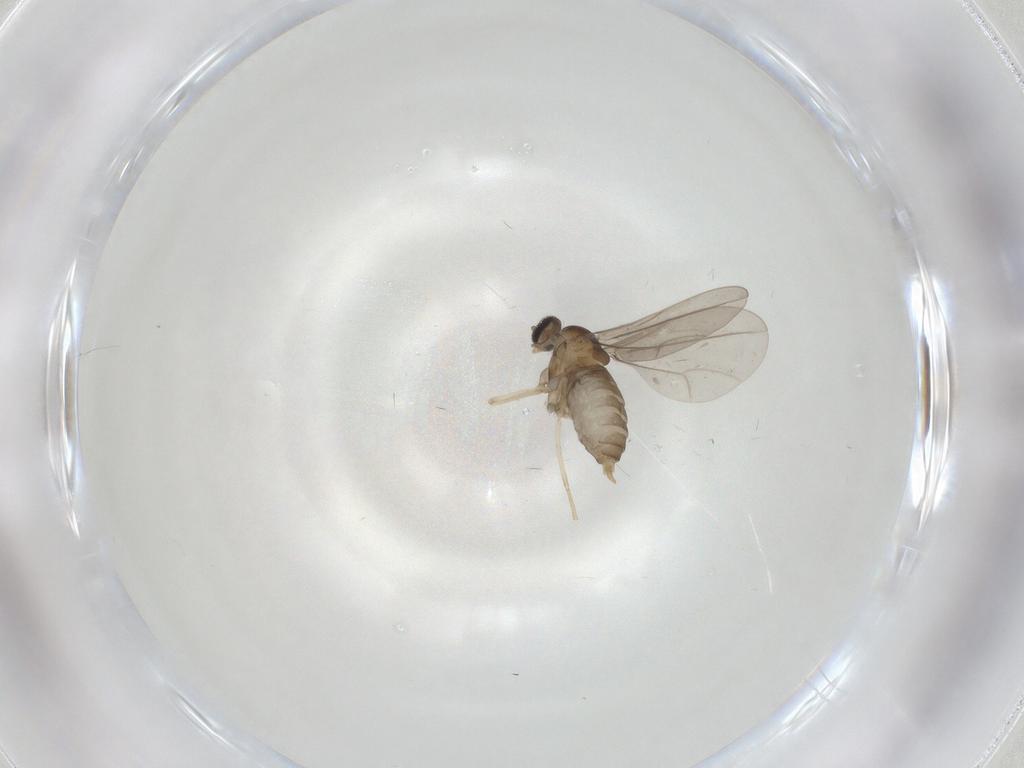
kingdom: Animalia
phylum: Arthropoda
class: Insecta
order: Diptera
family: Cecidomyiidae
